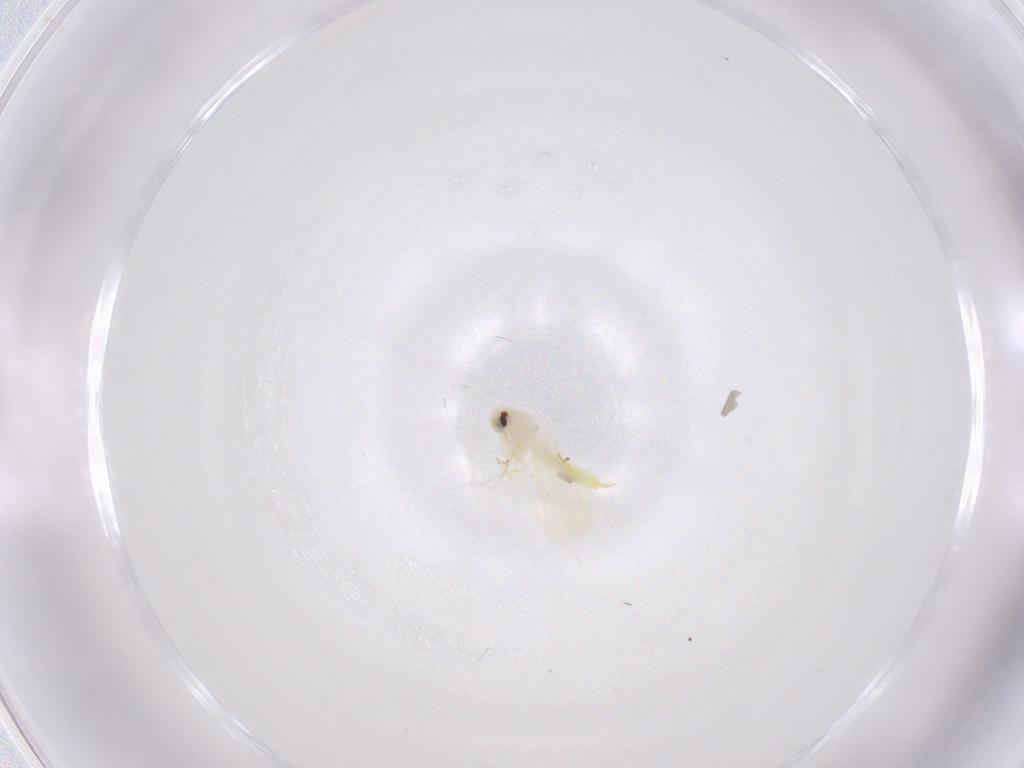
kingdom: Animalia
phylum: Arthropoda
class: Insecta
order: Hemiptera
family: Aleyrodidae
